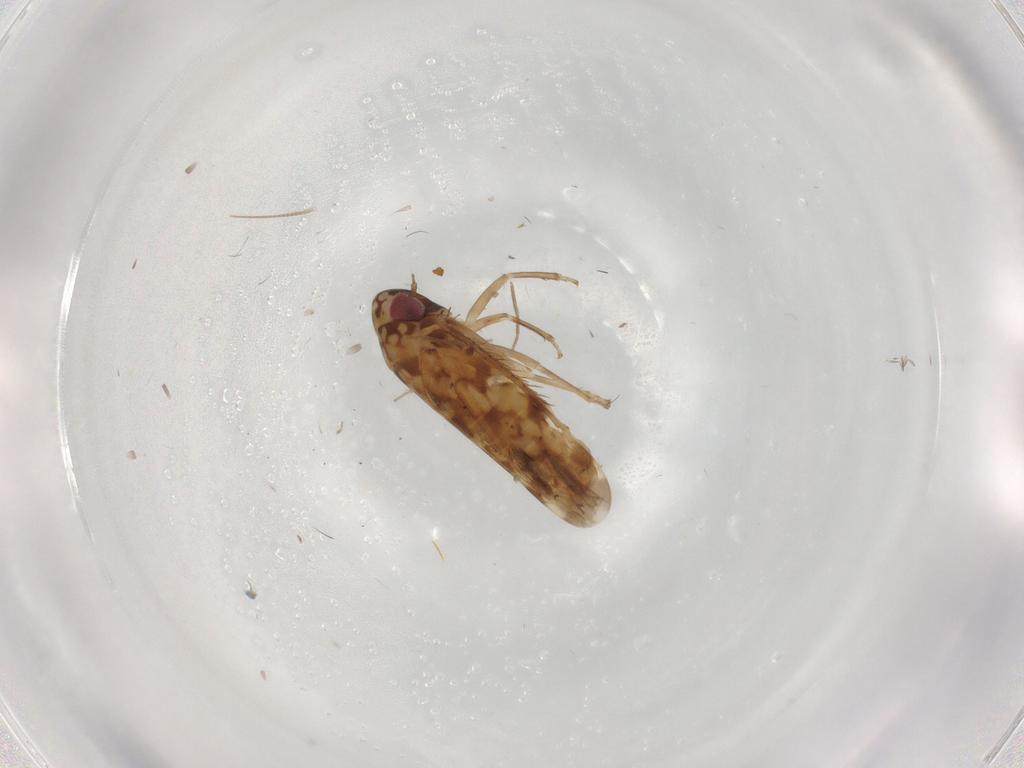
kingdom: Animalia
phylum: Arthropoda
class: Insecta
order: Hemiptera
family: Cicadellidae
